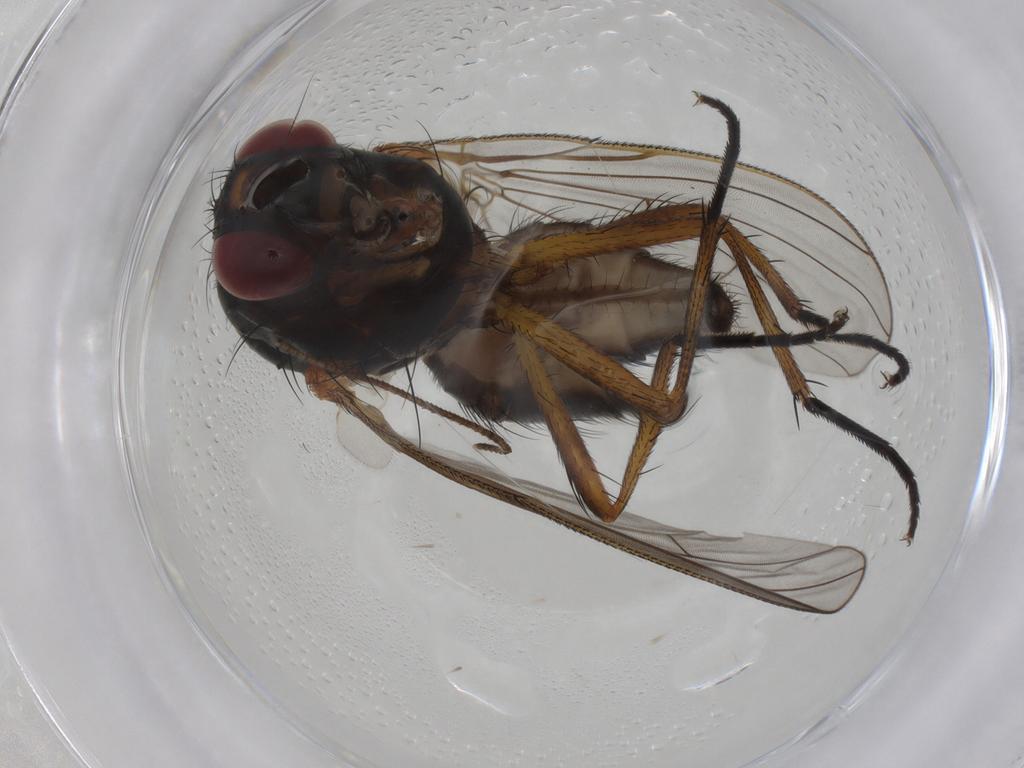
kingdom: Animalia
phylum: Arthropoda
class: Insecta
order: Diptera
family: Anthomyiidae
